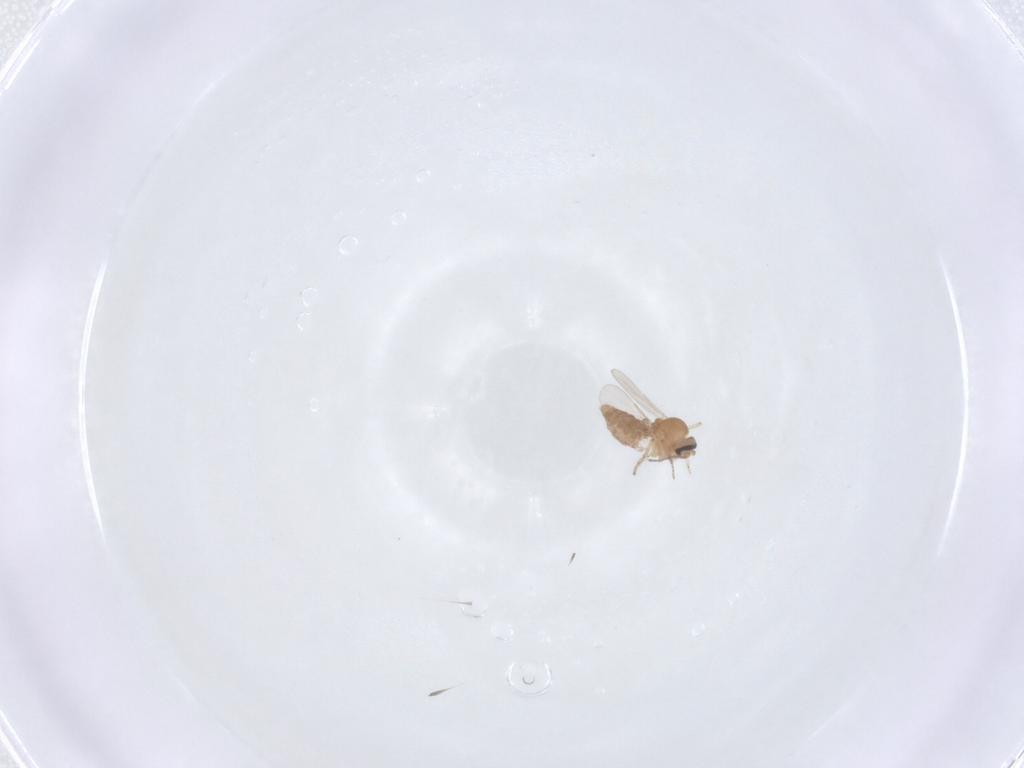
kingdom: Animalia
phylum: Arthropoda
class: Insecta
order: Diptera
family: Ceratopogonidae
